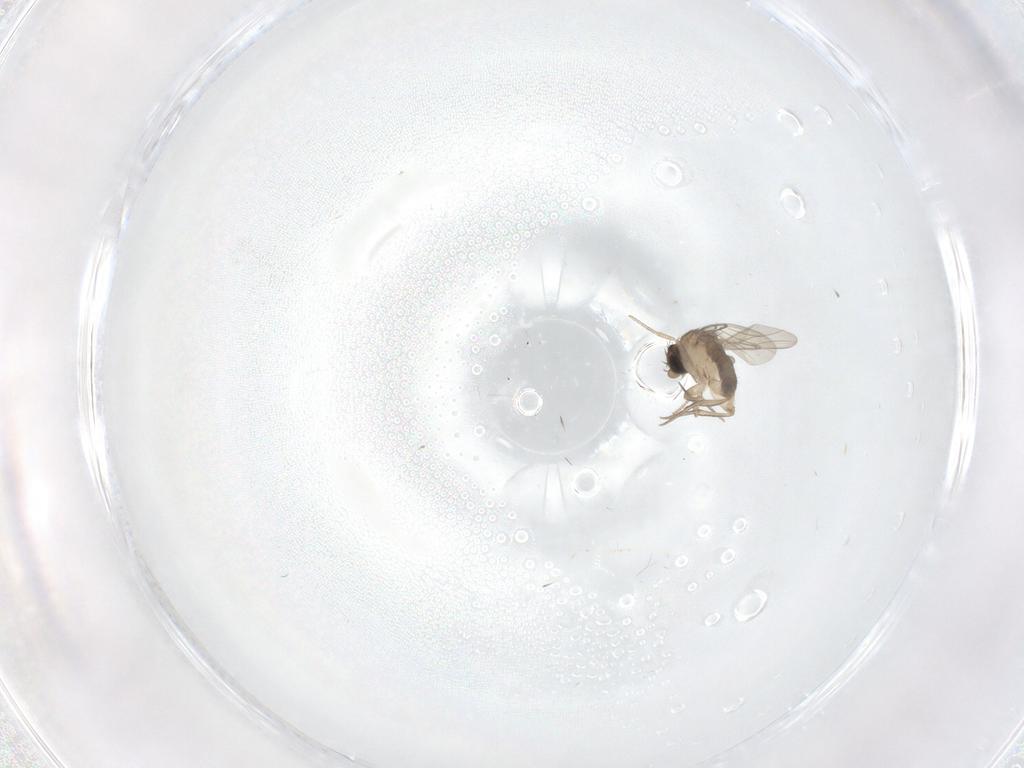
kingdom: Animalia
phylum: Arthropoda
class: Insecta
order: Diptera
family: Phoridae
